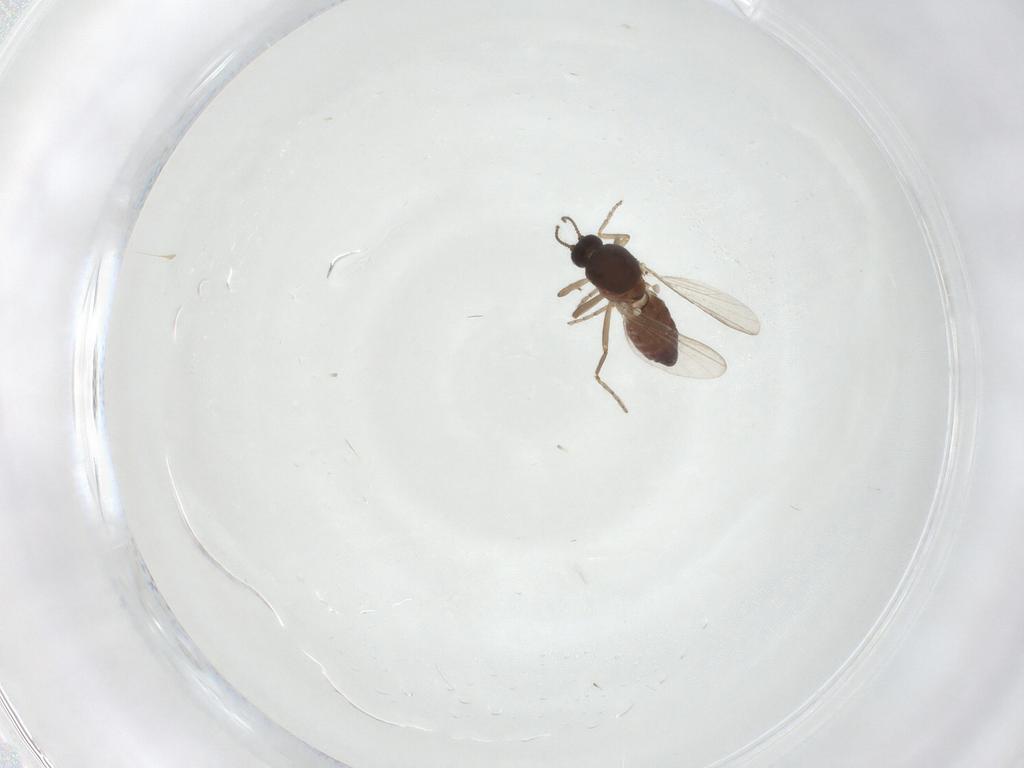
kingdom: Animalia
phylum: Arthropoda
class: Insecta
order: Diptera
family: Ceratopogonidae
